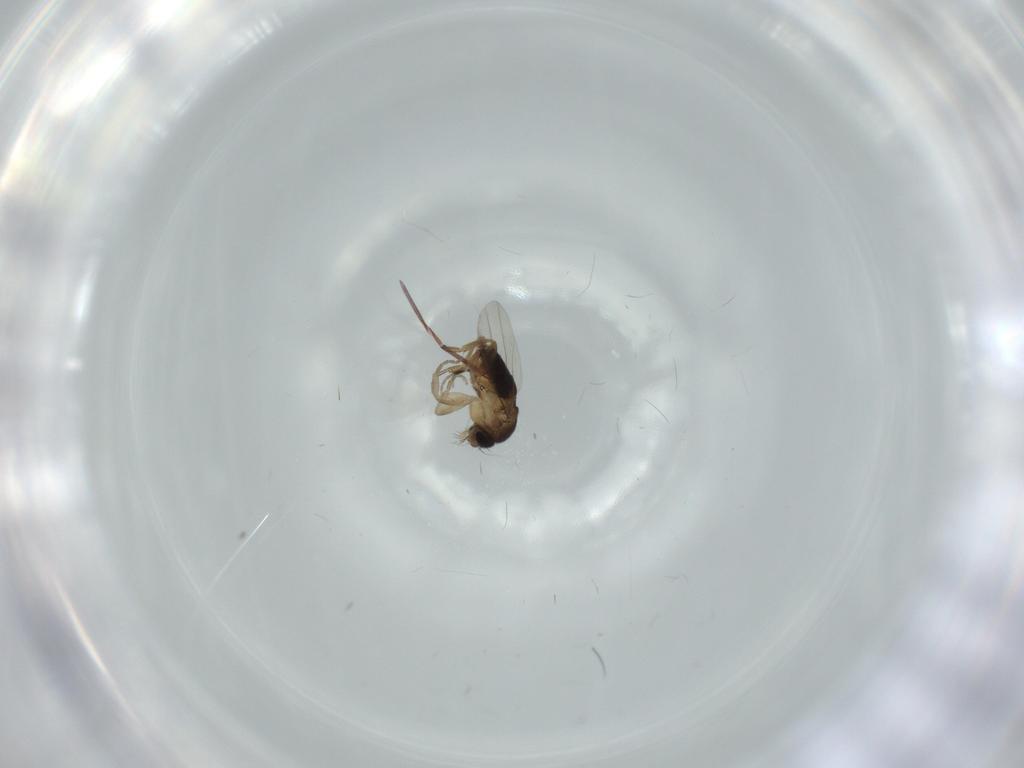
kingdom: Animalia
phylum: Arthropoda
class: Insecta
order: Diptera
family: Phoridae
